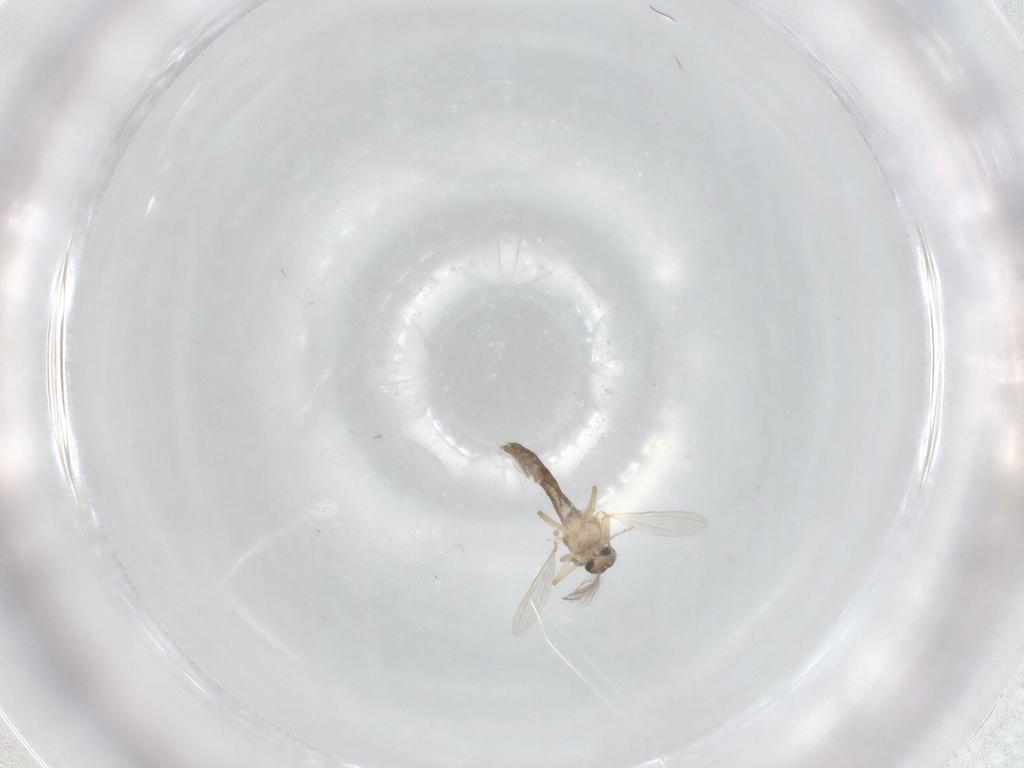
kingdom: Animalia
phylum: Arthropoda
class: Insecta
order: Diptera
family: Ceratopogonidae
